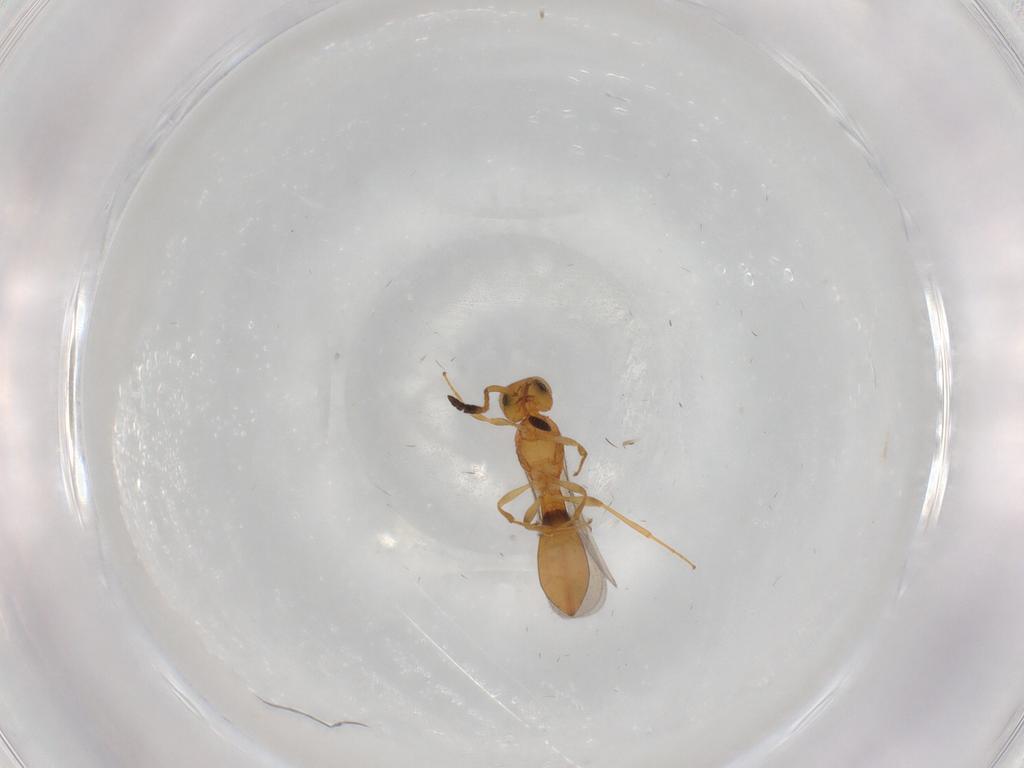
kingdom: Animalia
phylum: Arthropoda
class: Insecta
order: Hymenoptera
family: Scelionidae
